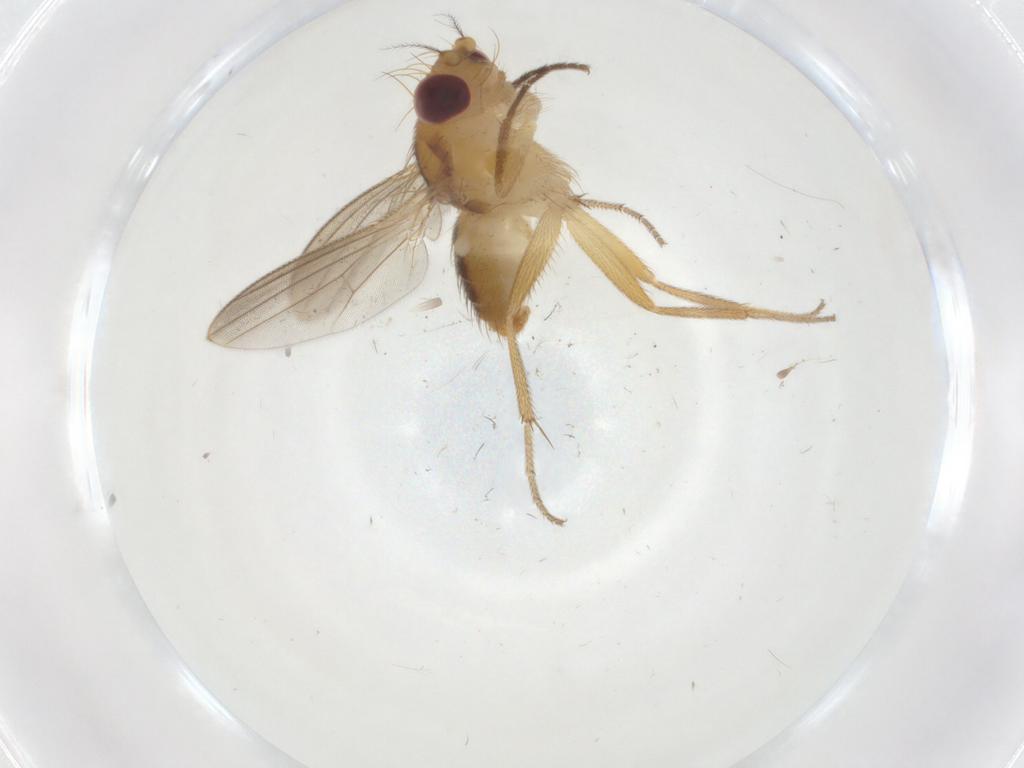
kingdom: Animalia
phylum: Arthropoda
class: Insecta
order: Diptera
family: Clusiidae
